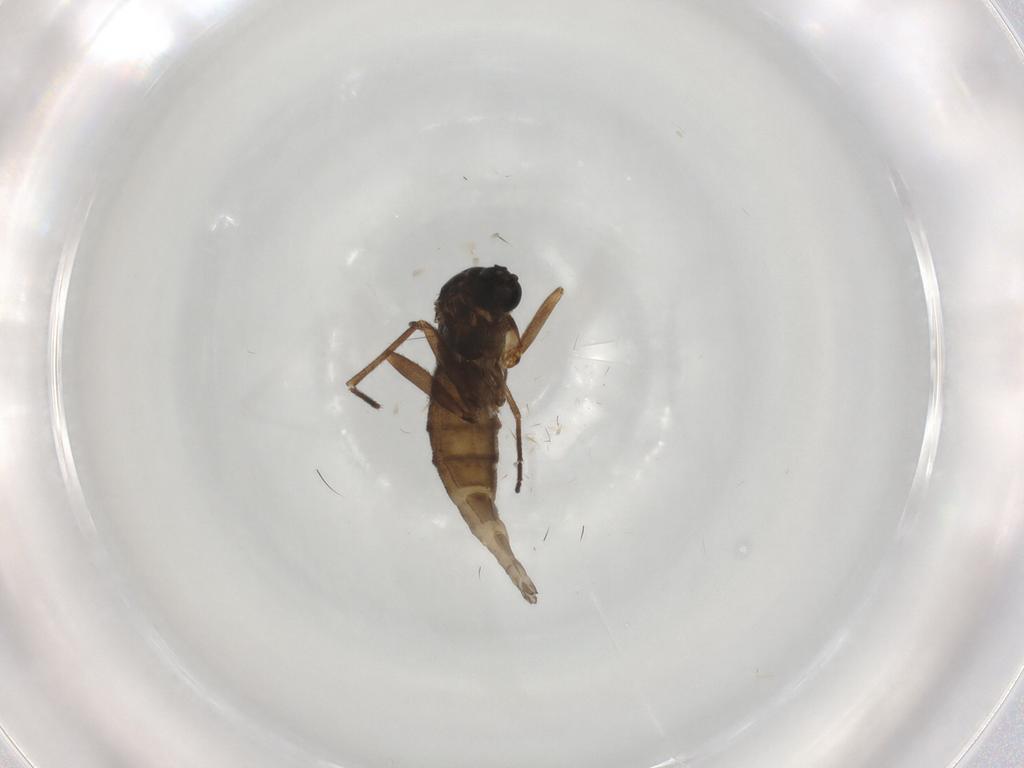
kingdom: Animalia
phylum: Arthropoda
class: Insecta
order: Diptera
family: Sciaridae
